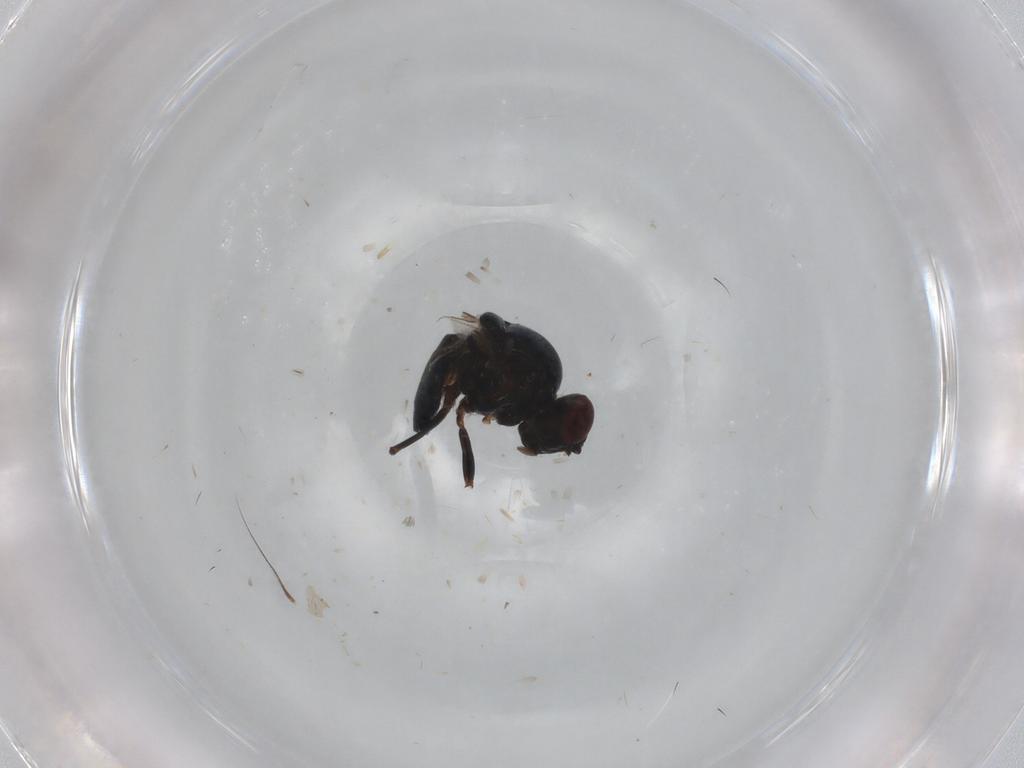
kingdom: Animalia
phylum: Arthropoda
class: Insecta
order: Diptera
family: Chloropidae
